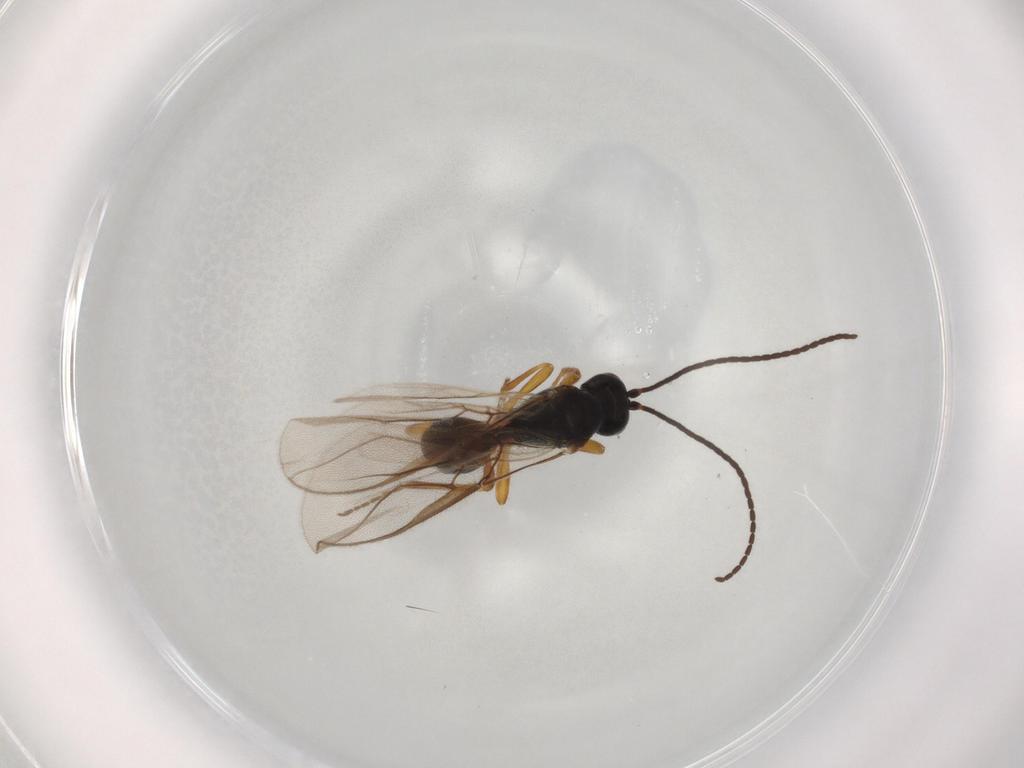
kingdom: Animalia
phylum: Arthropoda
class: Insecta
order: Hymenoptera
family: Braconidae
